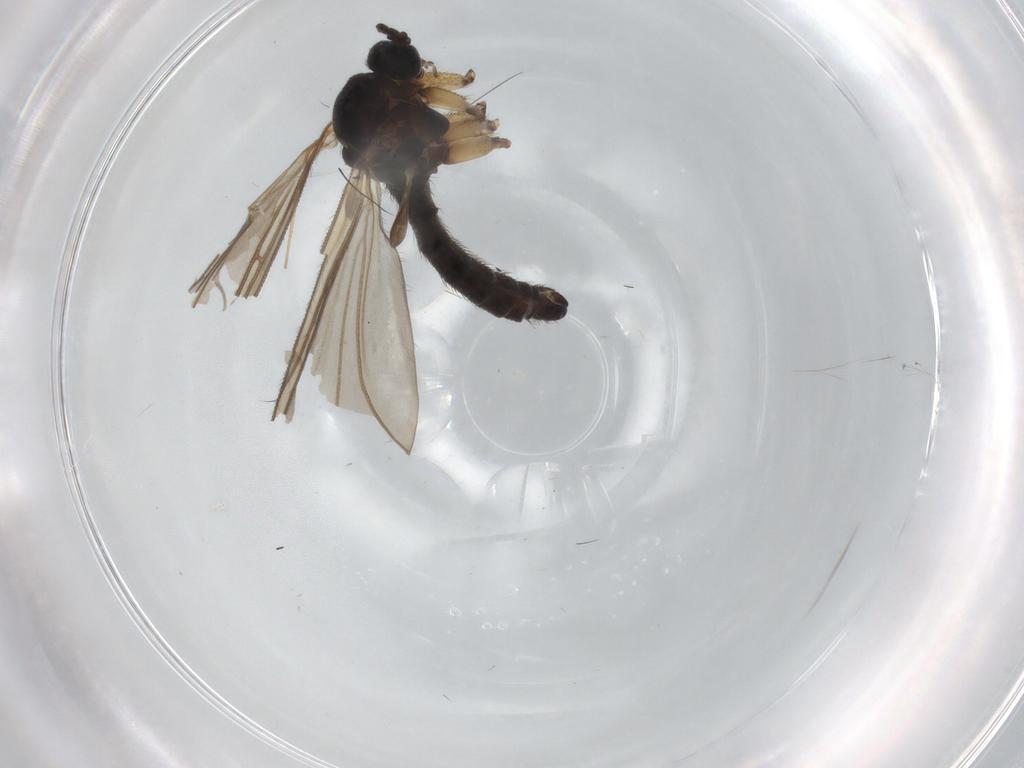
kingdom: Animalia
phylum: Arthropoda
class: Insecta
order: Diptera
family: Sciaridae
